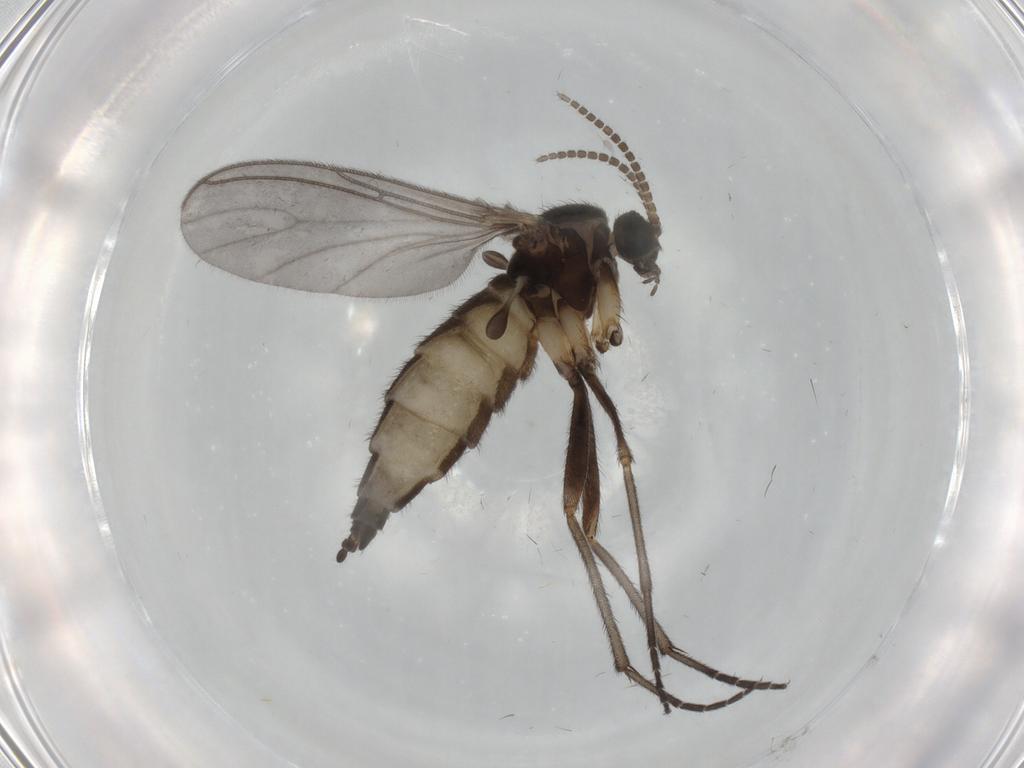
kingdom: Animalia
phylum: Arthropoda
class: Insecta
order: Diptera
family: Sciaridae
